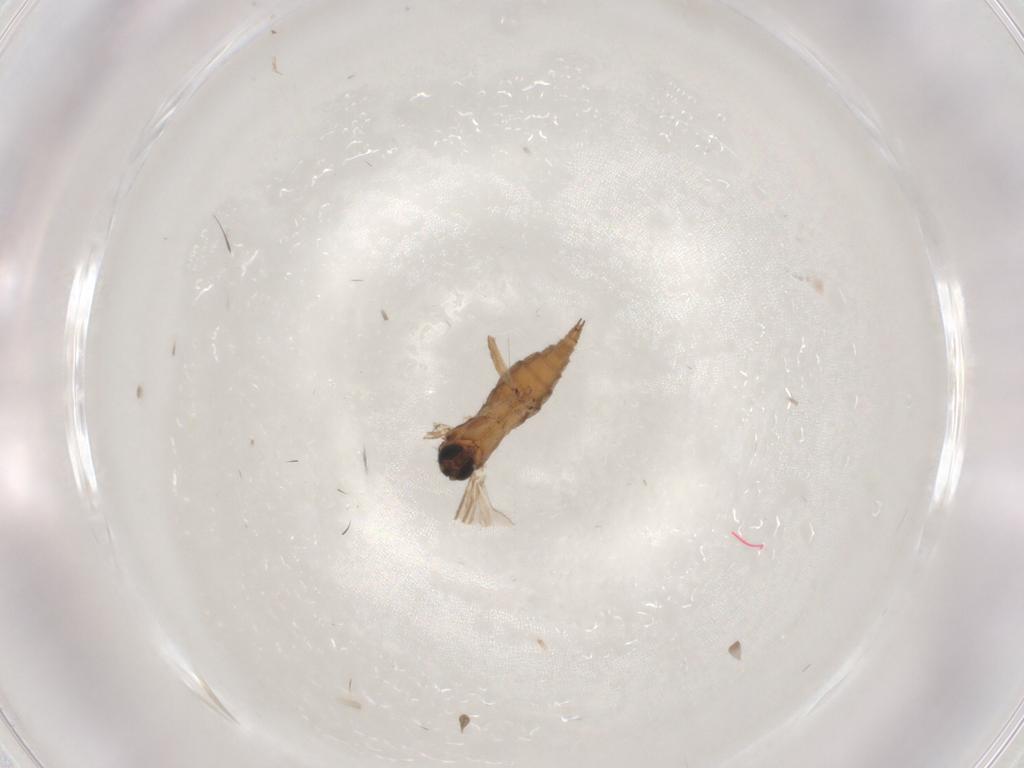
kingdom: Animalia
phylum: Arthropoda
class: Insecta
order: Diptera
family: Sciaridae
